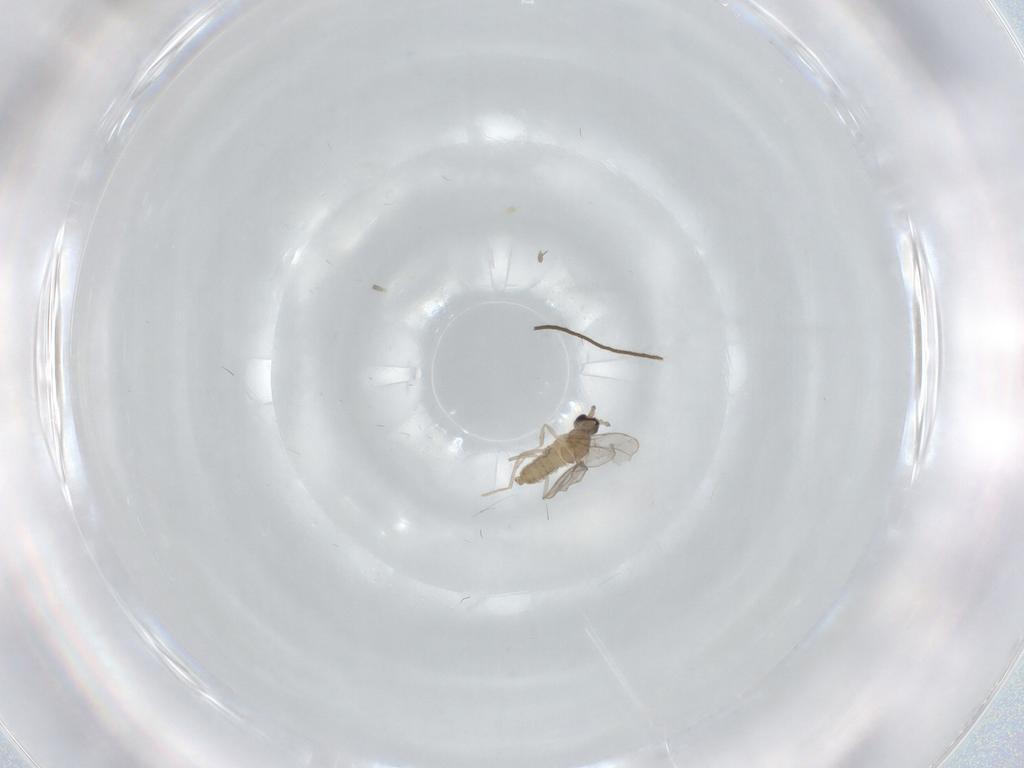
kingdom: Animalia
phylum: Arthropoda
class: Insecta
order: Diptera
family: Cecidomyiidae
